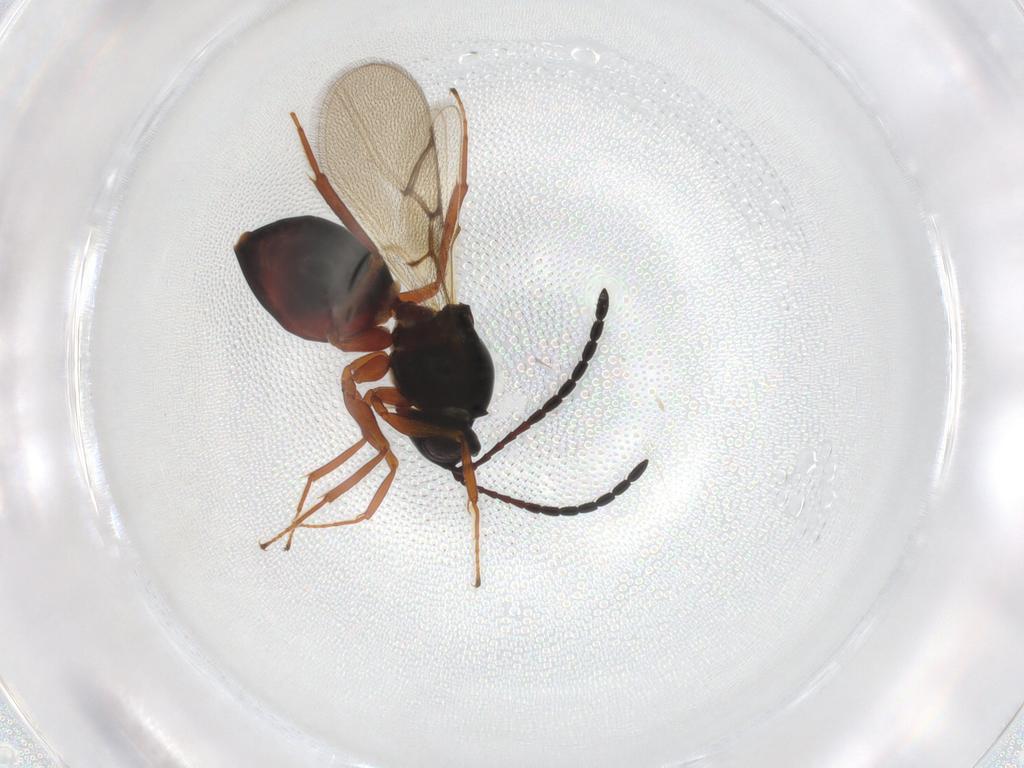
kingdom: Animalia
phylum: Arthropoda
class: Insecta
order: Hymenoptera
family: Figitidae
